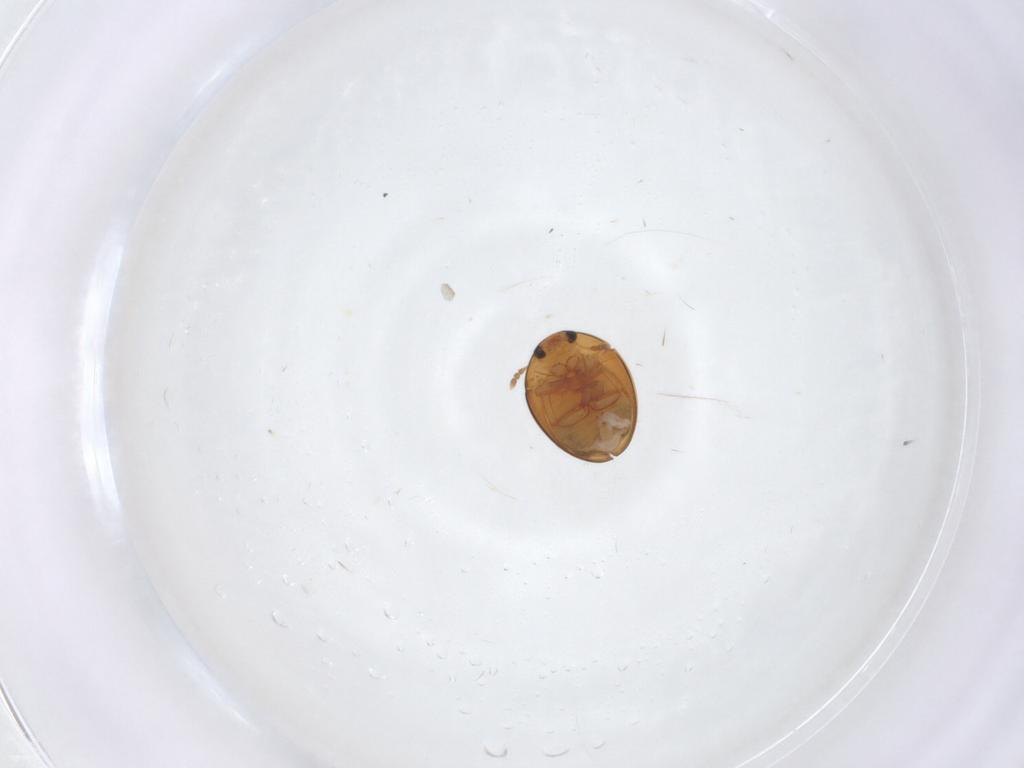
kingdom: Animalia
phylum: Arthropoda
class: Insecta
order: Coleoptera
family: Phalacridae
